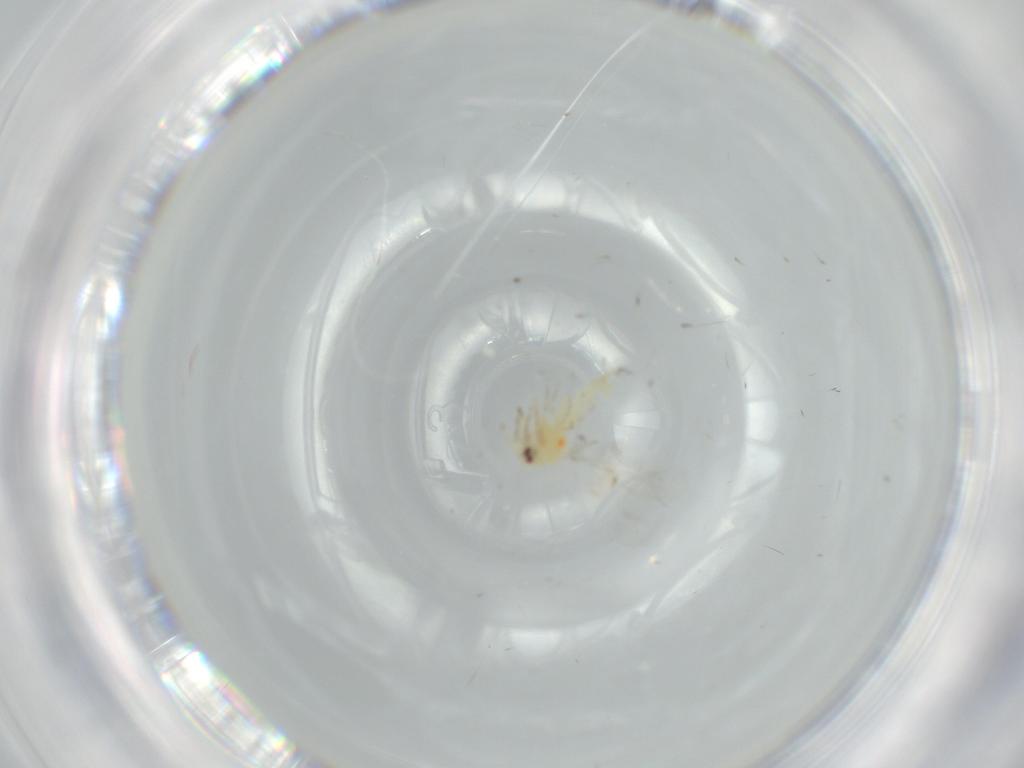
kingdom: Animalia
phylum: Arthropoda
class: Insecta
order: Hemiptera
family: Aleyrodidae
